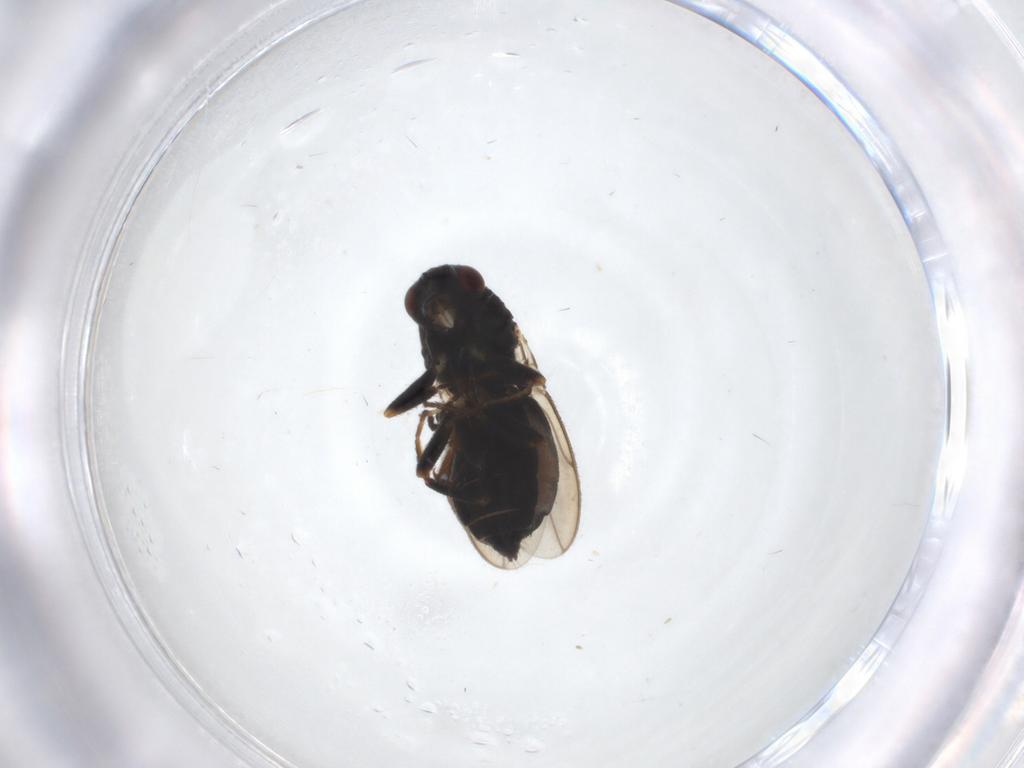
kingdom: Animalia
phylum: Arthropoda
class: Insecta
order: Diptera
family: Sphaeroceridae
